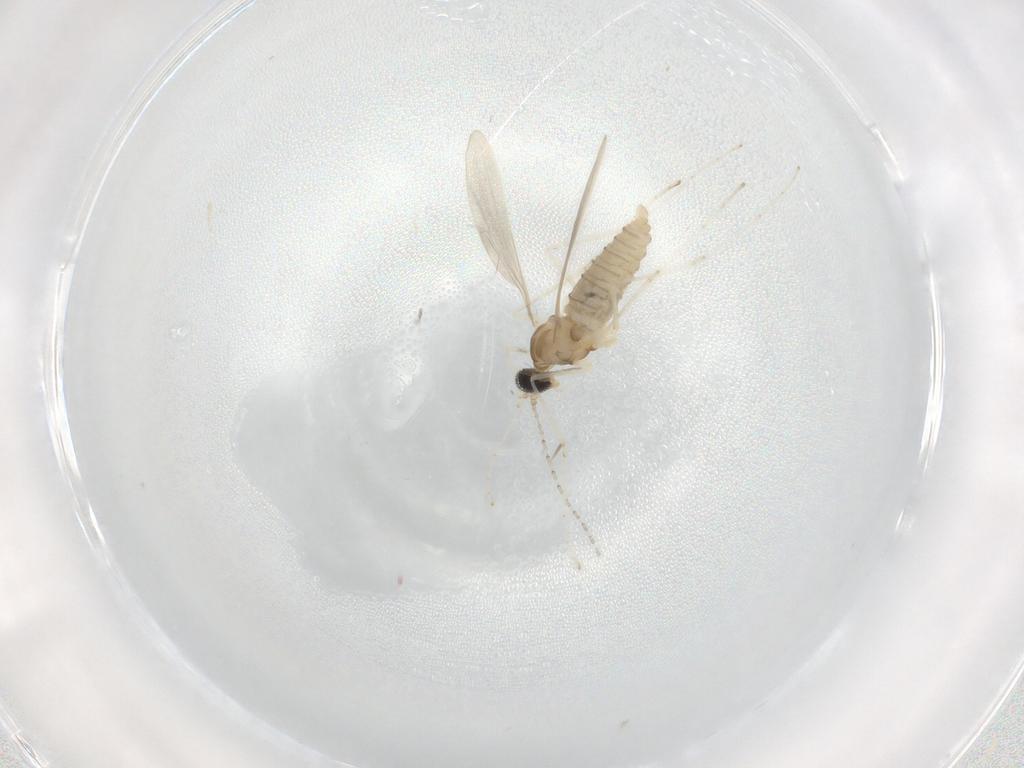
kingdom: Animalia
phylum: Arthropoda
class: Insecta
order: Diptera
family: Cecidomyiidae
